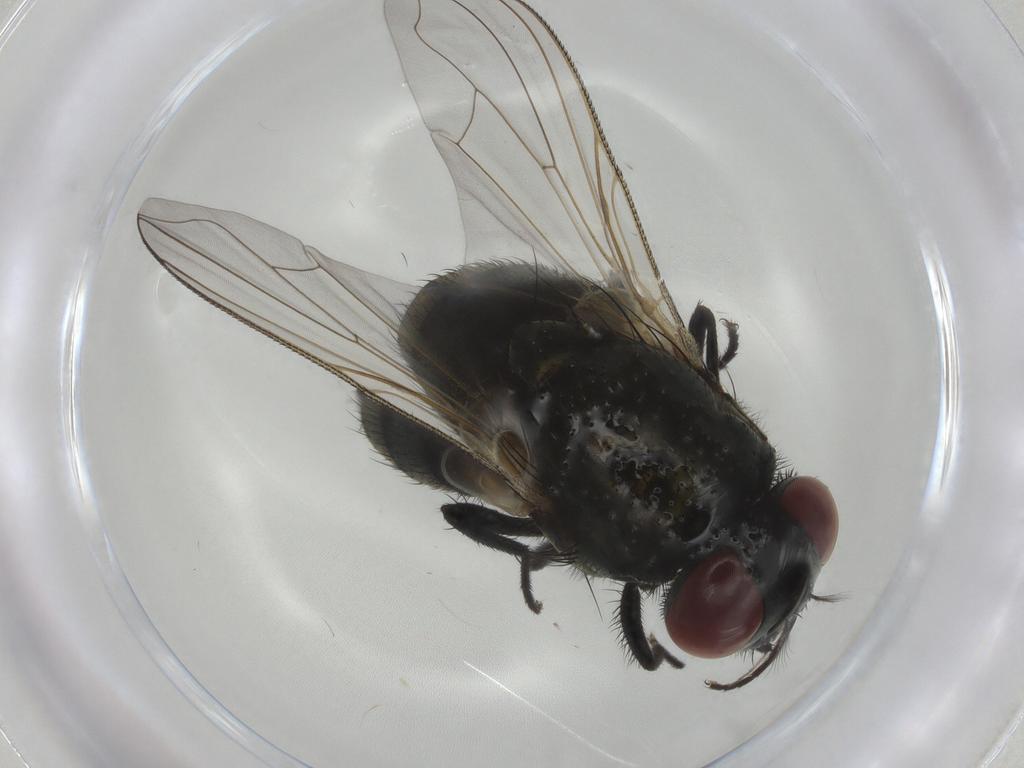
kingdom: Animalia
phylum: Arthropoda
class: Insecta
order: Diptera
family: Muscidae
